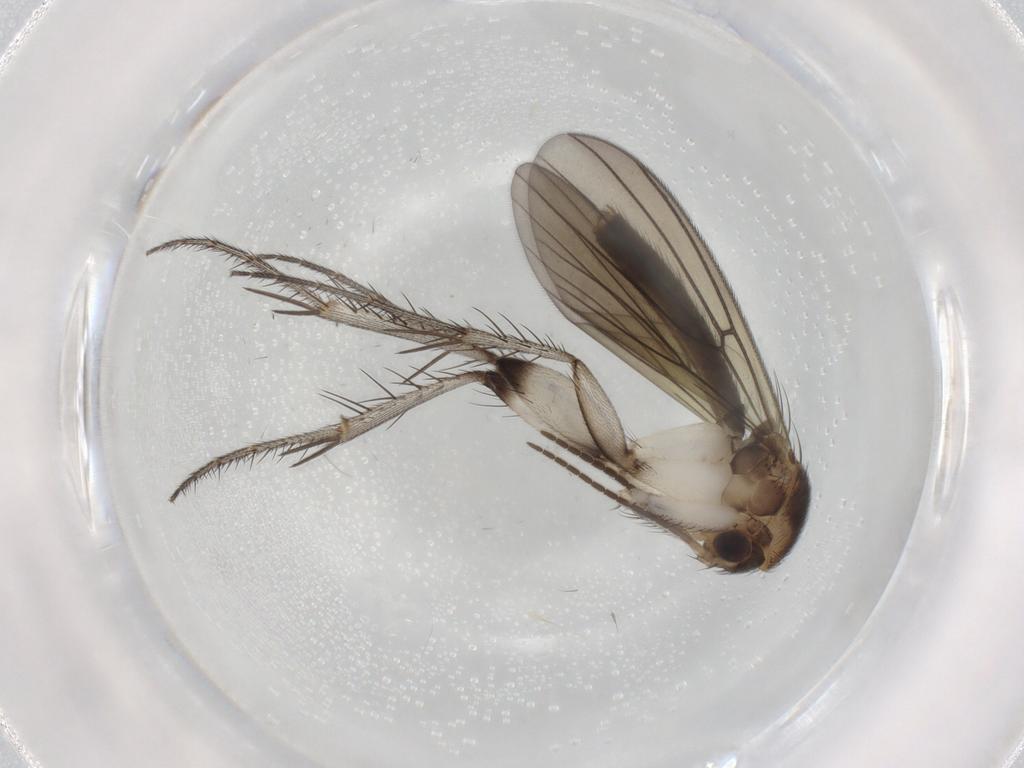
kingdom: Animalia
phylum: Arthropoda
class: Insecta
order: Diptera
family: Mycetophilidae
